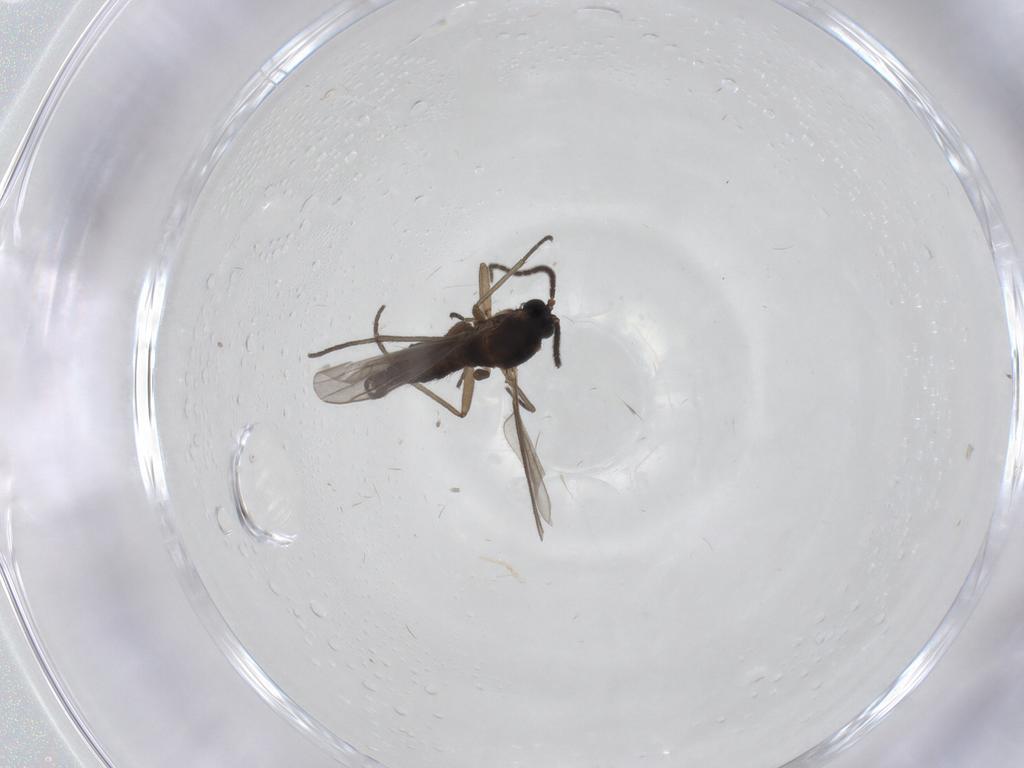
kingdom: Animalia
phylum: Arthropoda
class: Insecta
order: Diptera
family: Sciaridae
